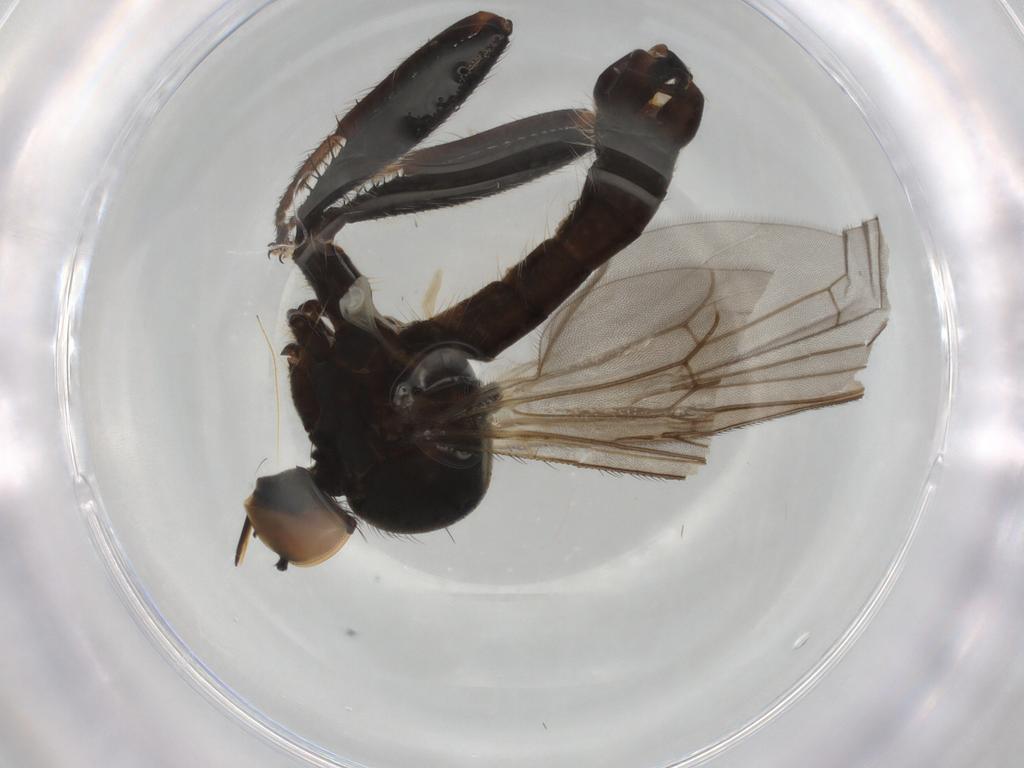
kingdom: Animalia
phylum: Arthropoda
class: Insecta
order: Diptera
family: Hybotidae
